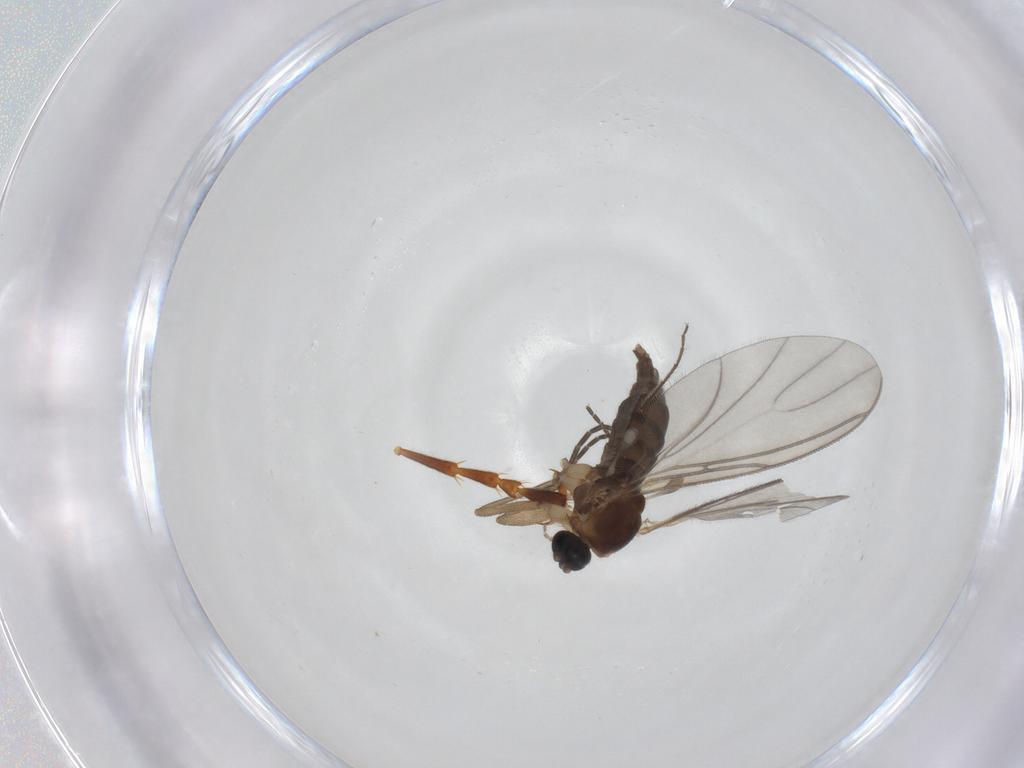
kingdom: Animalia
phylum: Arthropoda
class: Insecta
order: Diptera
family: Sciaridae
